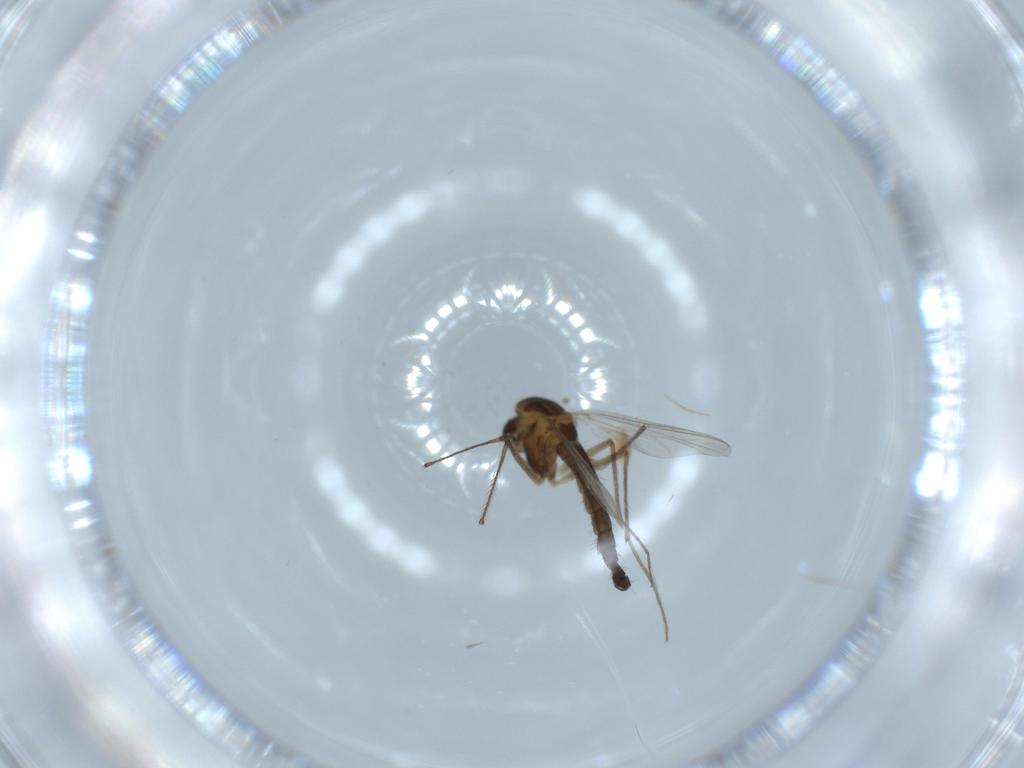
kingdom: Animalia
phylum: Arthropoda
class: Insecta
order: Diptera
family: Chironomidae
